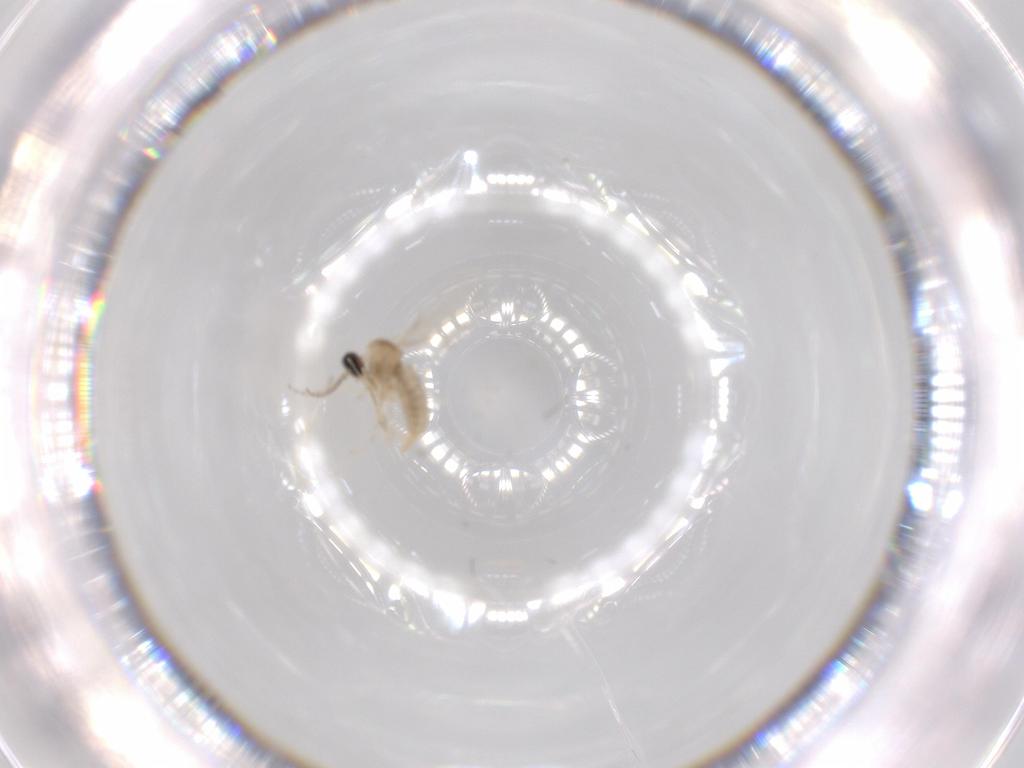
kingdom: Animalia
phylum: Arthropoda
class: Insecta
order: Diptera
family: Cecidomyiidae
